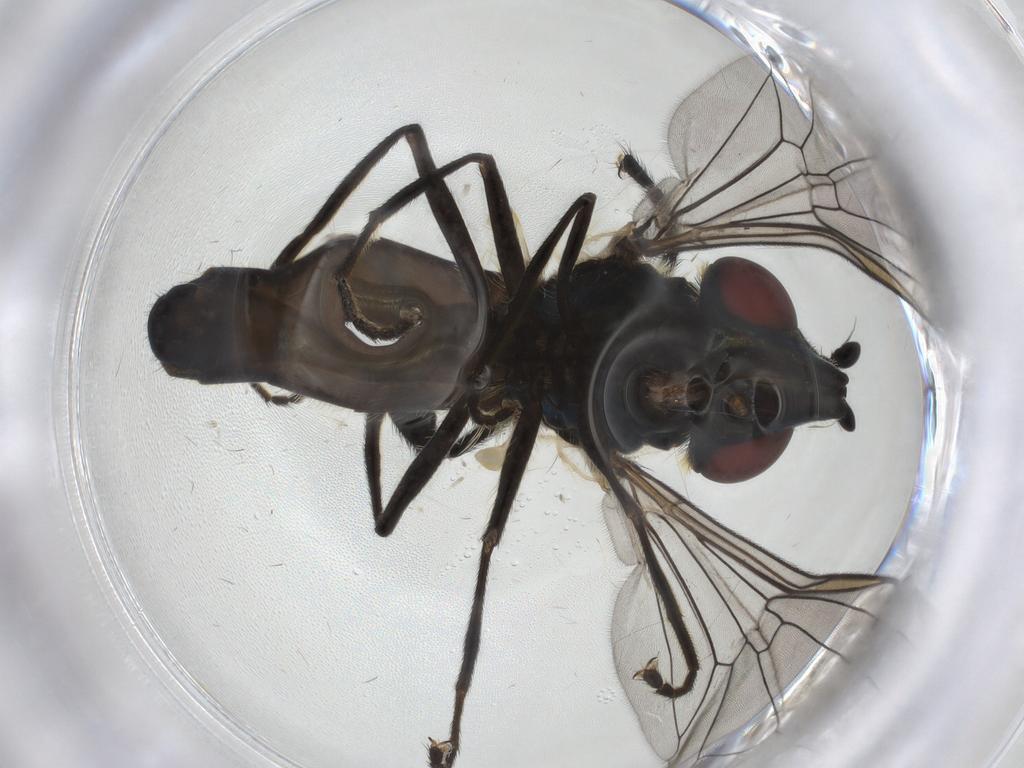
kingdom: Animalia
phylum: Arthropoda
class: Insecta
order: Diptera
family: Syrphidae
